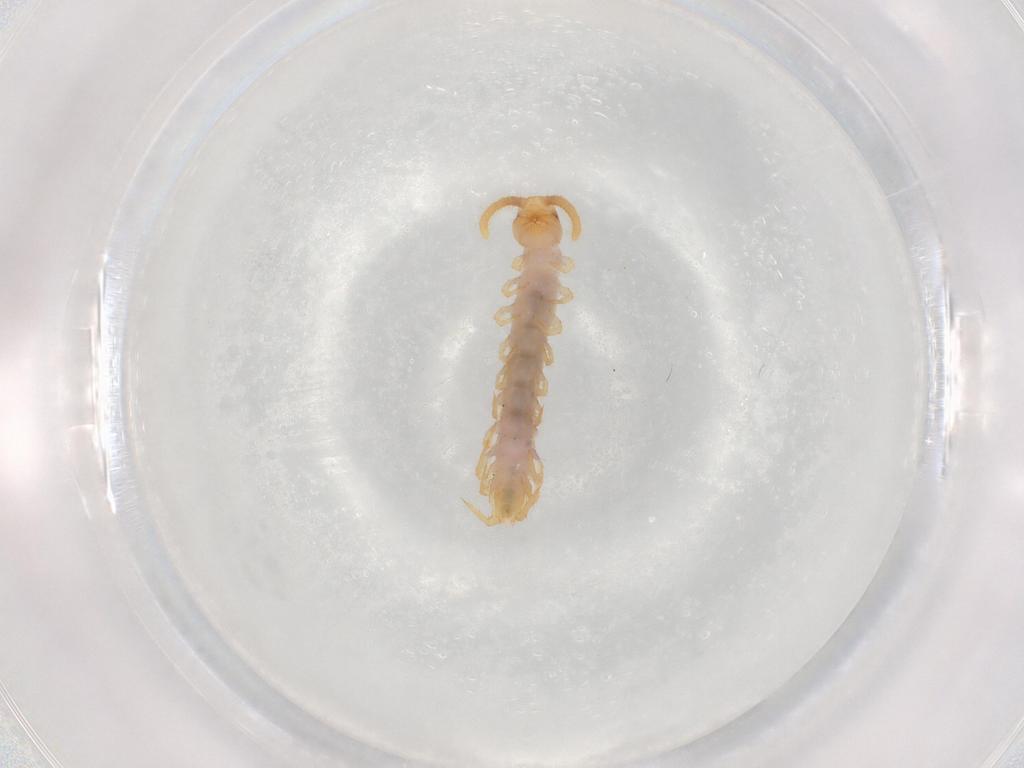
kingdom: Animalia
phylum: Arthropoda
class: Chilopoda
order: Lithobiomorpha
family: Lithobiidae
